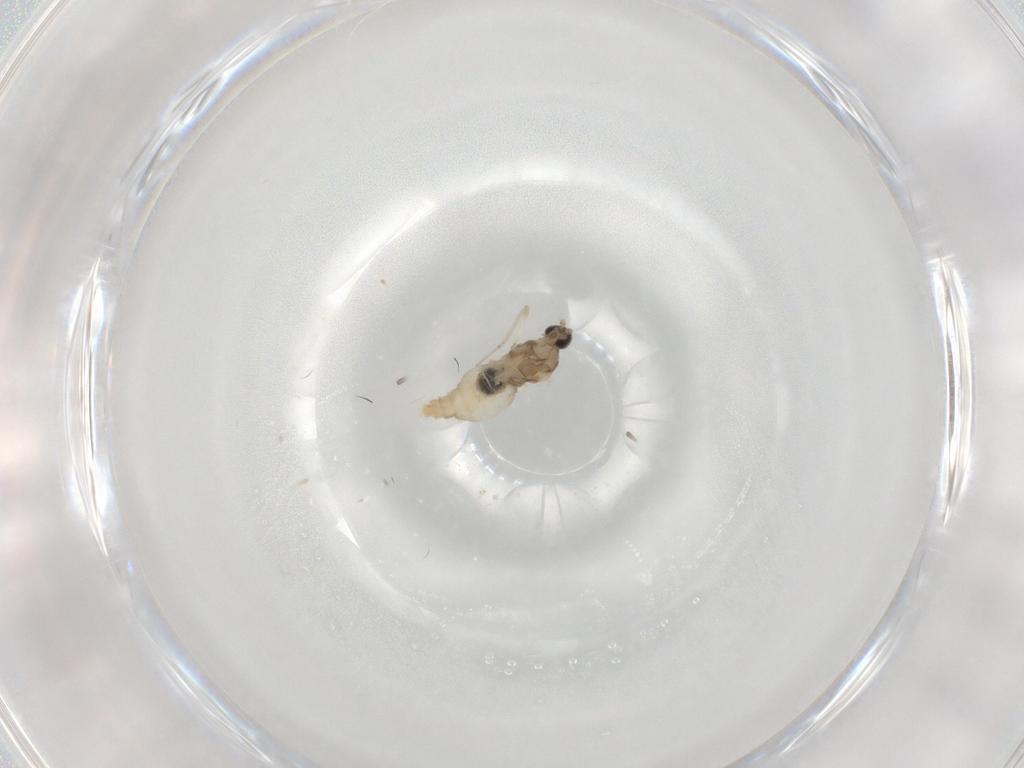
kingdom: Animalia
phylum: Arthropoda
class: Insecta
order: Diptera
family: Cecidomyiidae
